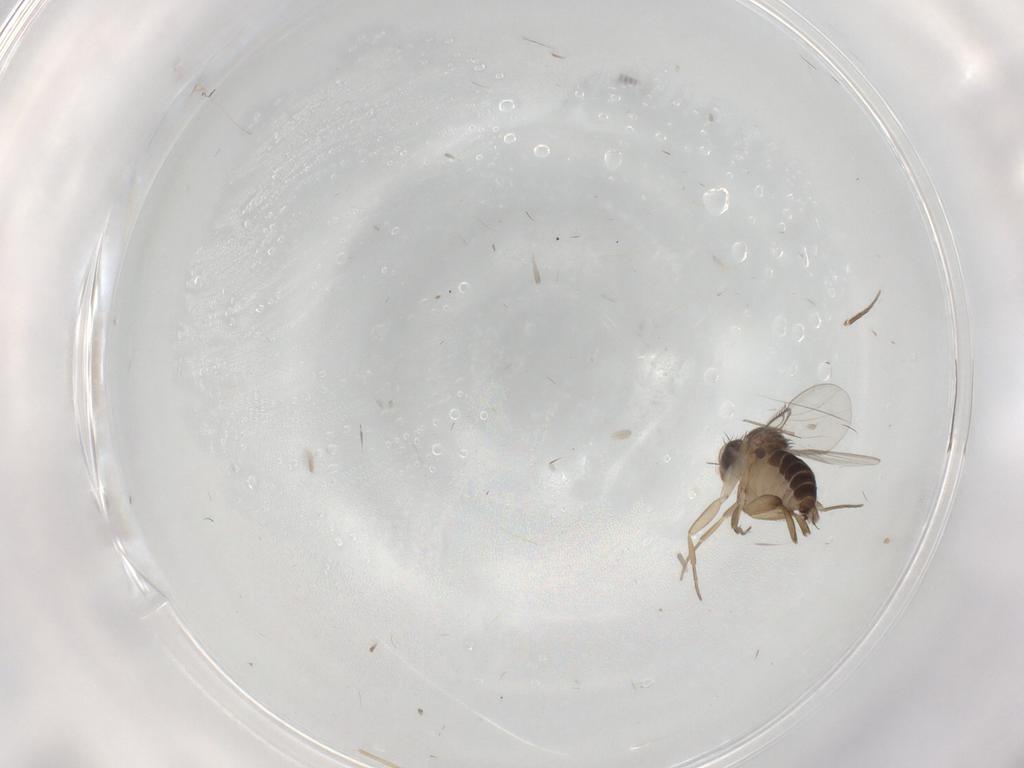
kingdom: Animalia
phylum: Arthropoda
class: Insecta
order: Diptera
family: Phoridae
